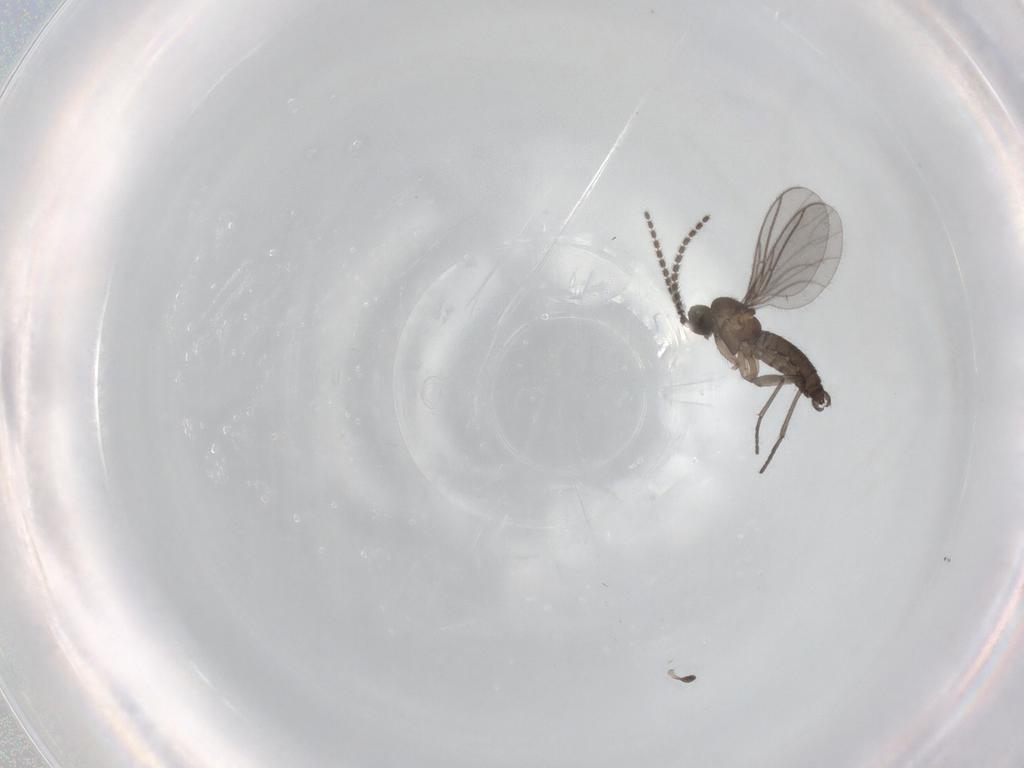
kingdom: Animalia
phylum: Arthropoda
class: Insecta
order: Diptera
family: Sciaridae
